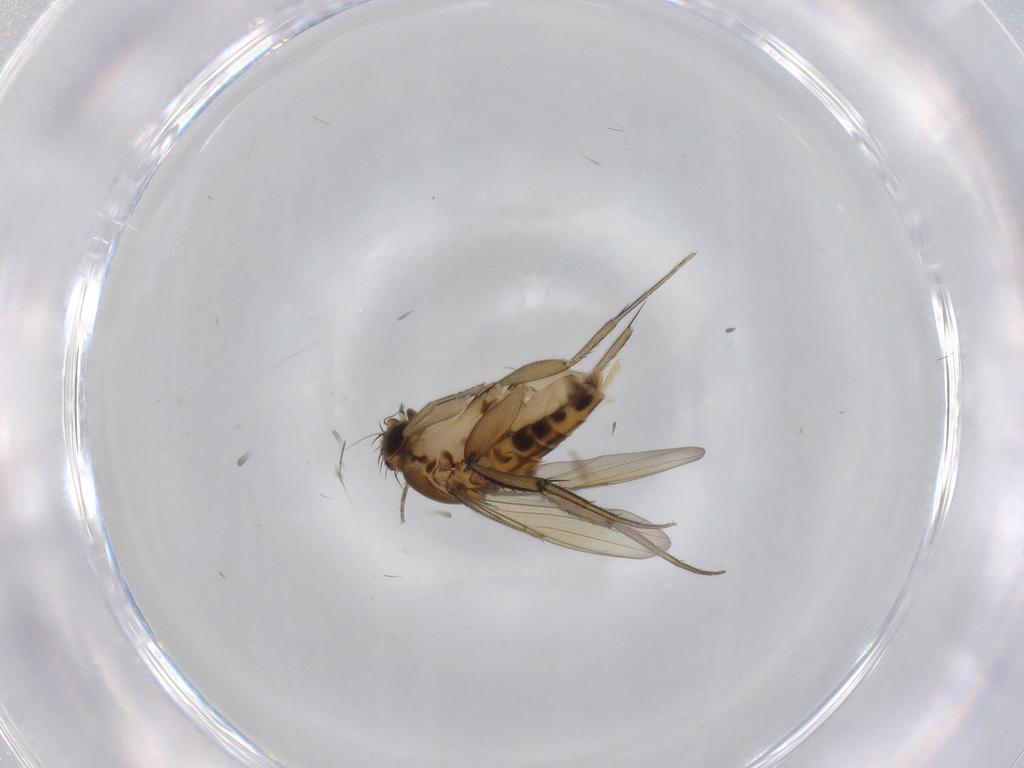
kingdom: Animalia
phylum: Arthropoda
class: Insecta
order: Diptera
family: Phoridae
